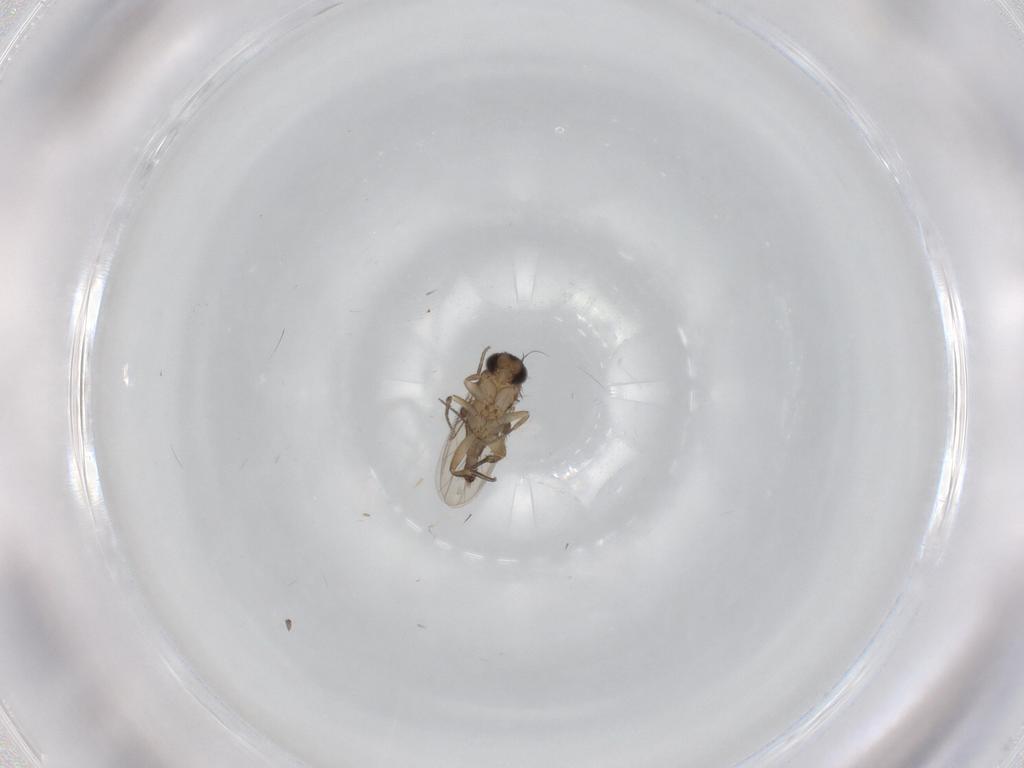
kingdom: Animalia
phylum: Arthropoda
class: Insecta
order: Diptera
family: Phoridae
